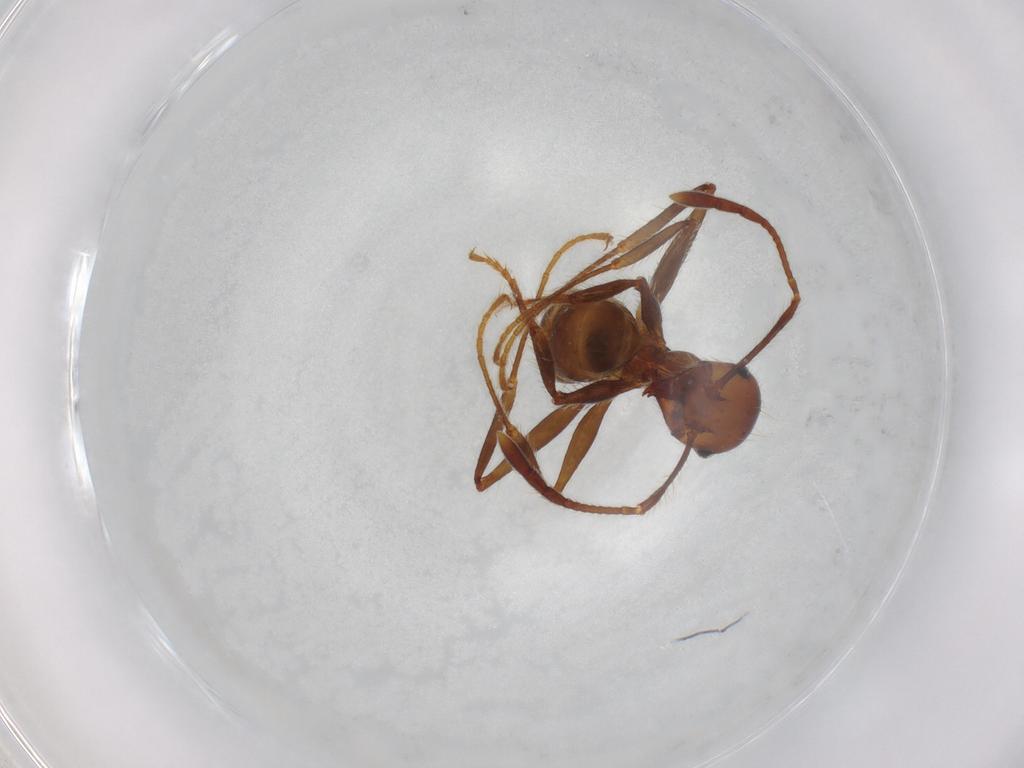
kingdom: Animalia
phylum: Arthropoda
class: Insecta
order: Hymenoptera
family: Formicidae
